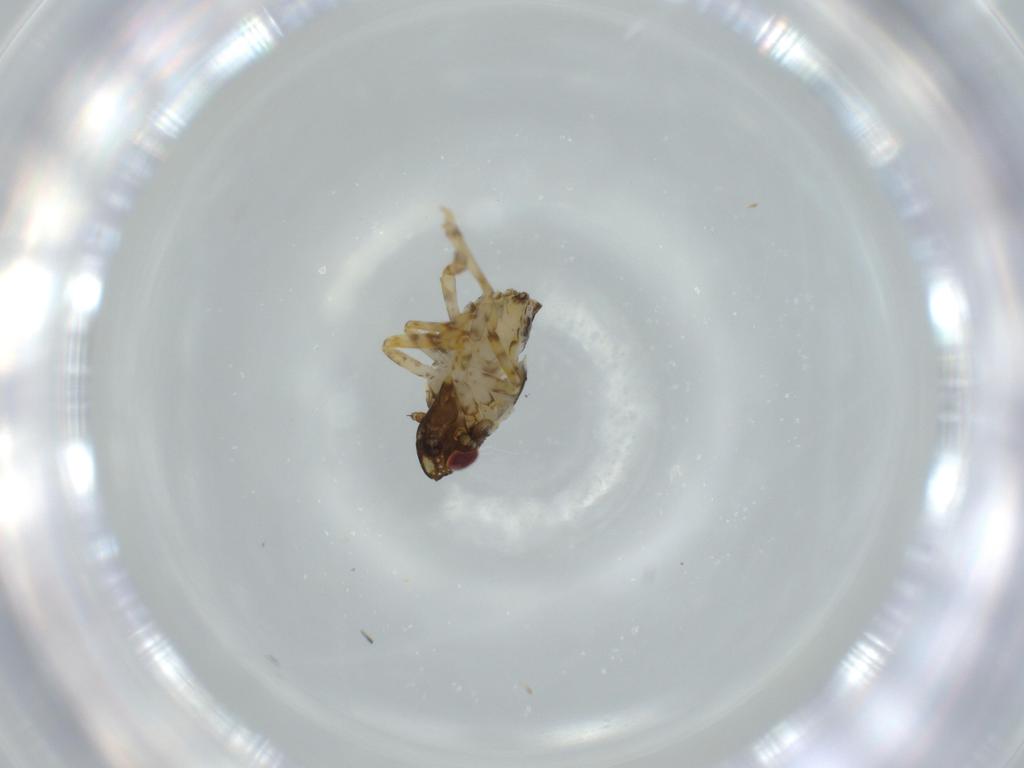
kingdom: Animalia
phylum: Arthropoda
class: Insecta
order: Hemiptera
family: Issidae
